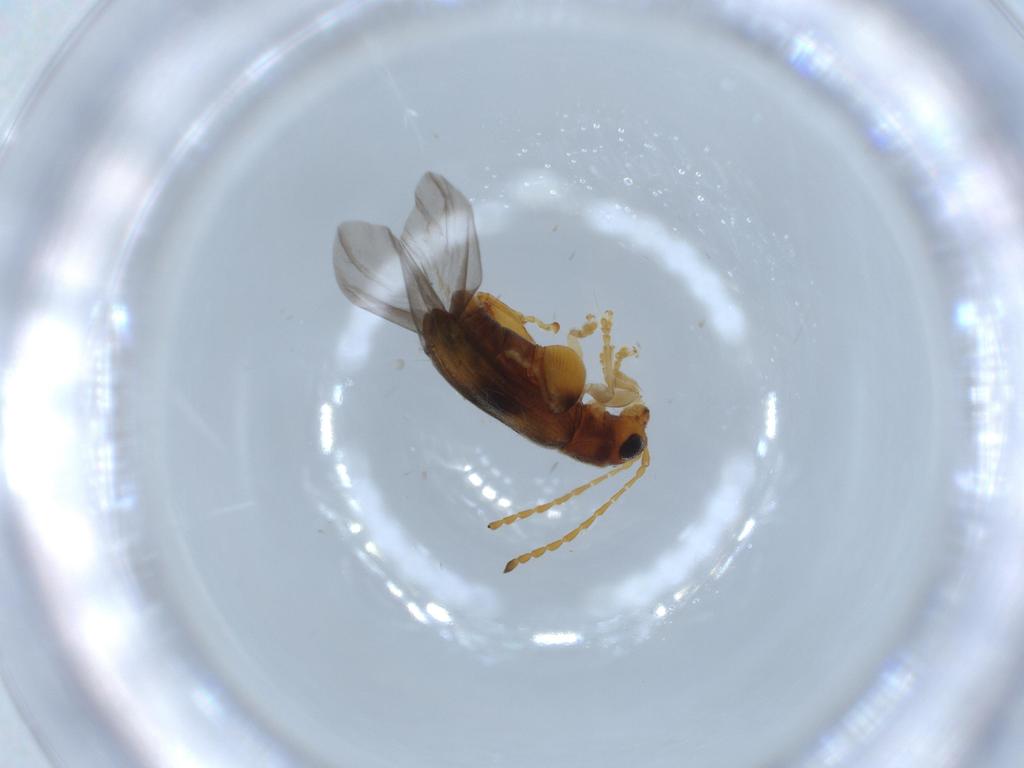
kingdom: Animalia
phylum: Arthropoda
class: Insecta
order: Coleoptera
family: Chrysomelidae
